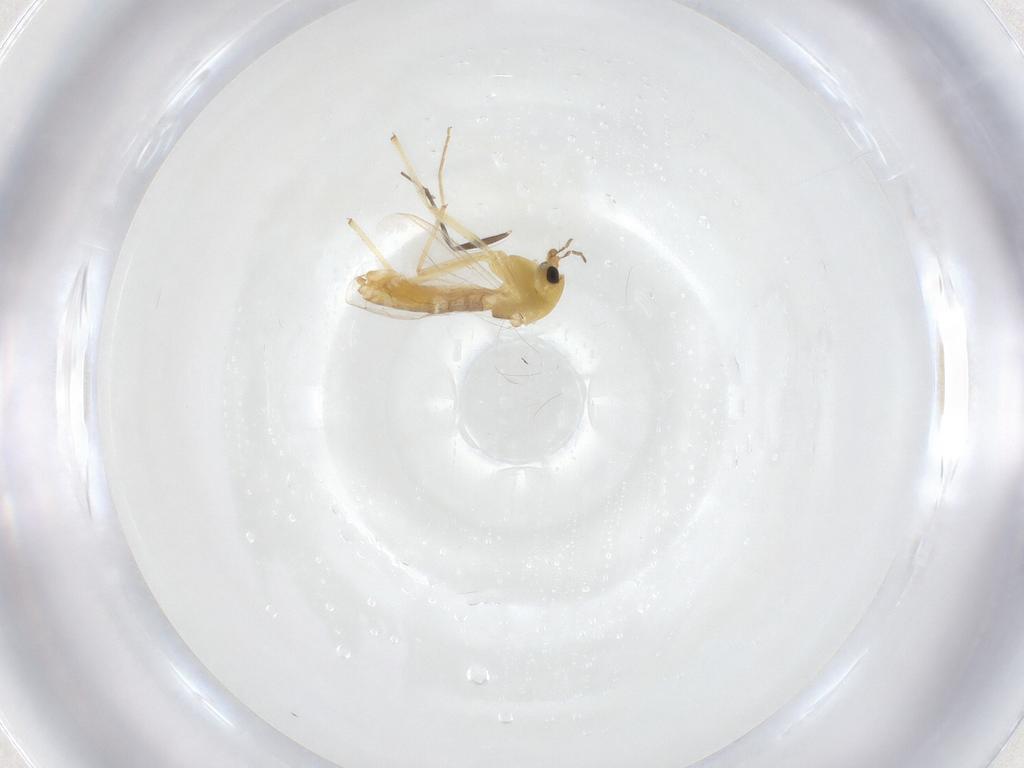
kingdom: Animalia
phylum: Arthropoda
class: Insecta
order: Diptera
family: Chironomidae
